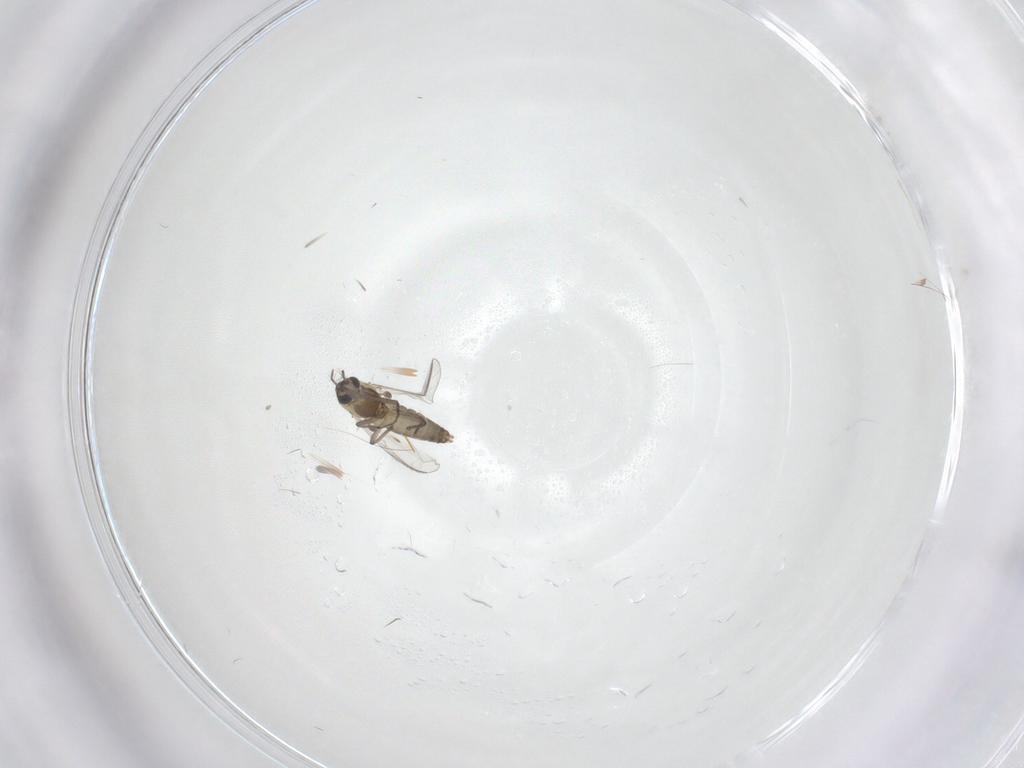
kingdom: Animalia
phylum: Arthropoda
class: Insecta
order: Diptera
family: Chironomidae
